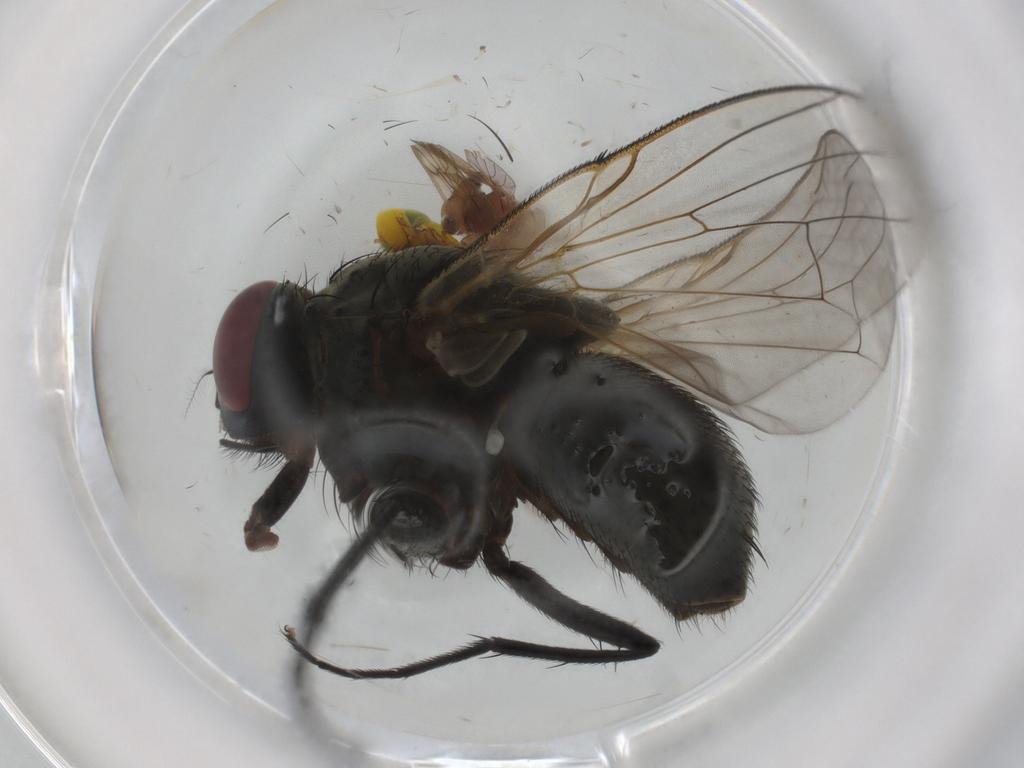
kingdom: Animalia
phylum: Arthropoda
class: Insecta
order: Diptera
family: Muscidae
